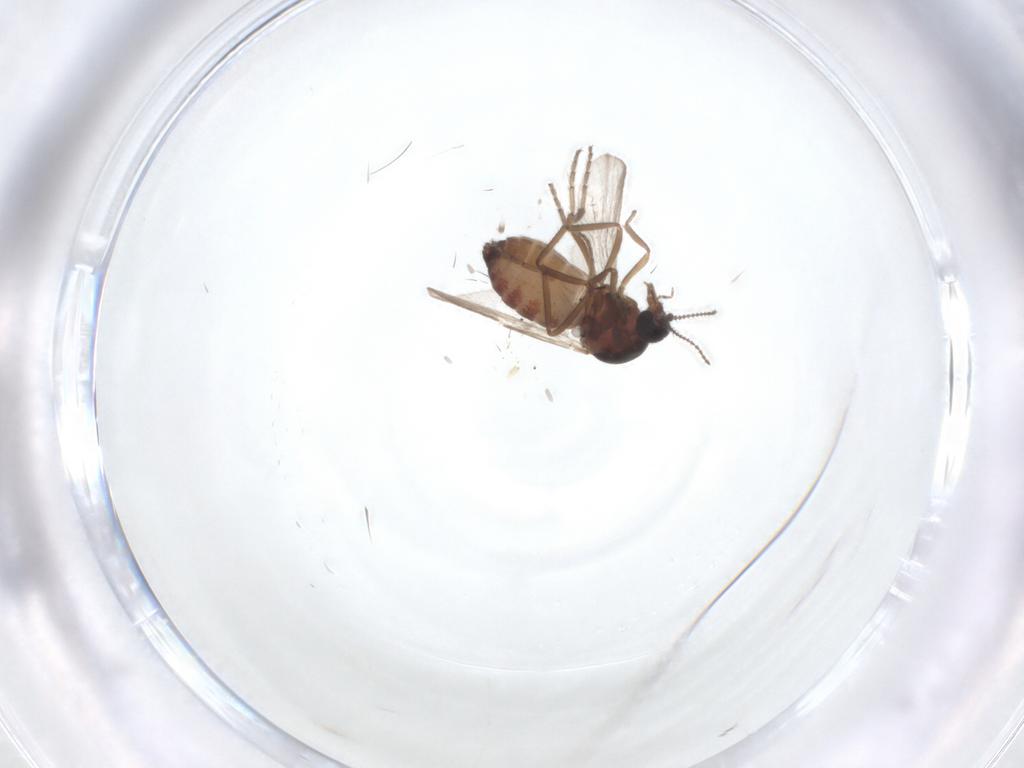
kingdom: Animalia
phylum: Arthropoda
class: Insecta
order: Diptera
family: Ceratopogonidae
